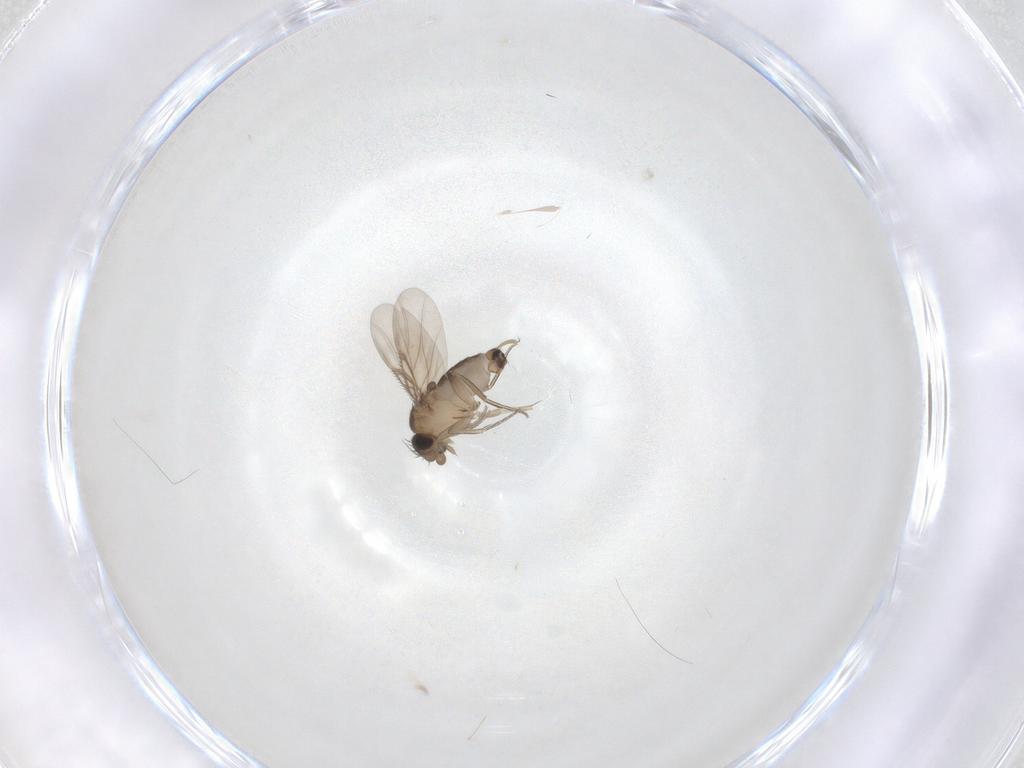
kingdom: Animalia
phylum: Arthropoda
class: Insecta
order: Diptera
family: Phoridae
